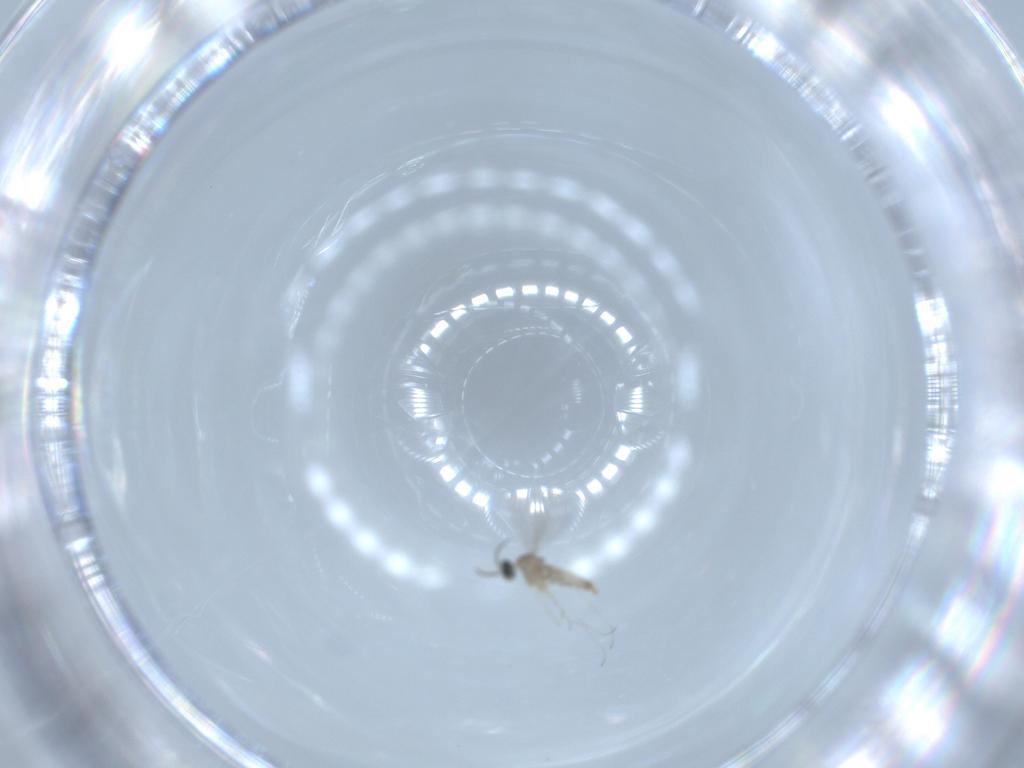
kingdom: Animalia
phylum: Arthropoda
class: Insecta
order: Diptera
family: Cecidomyiidae
